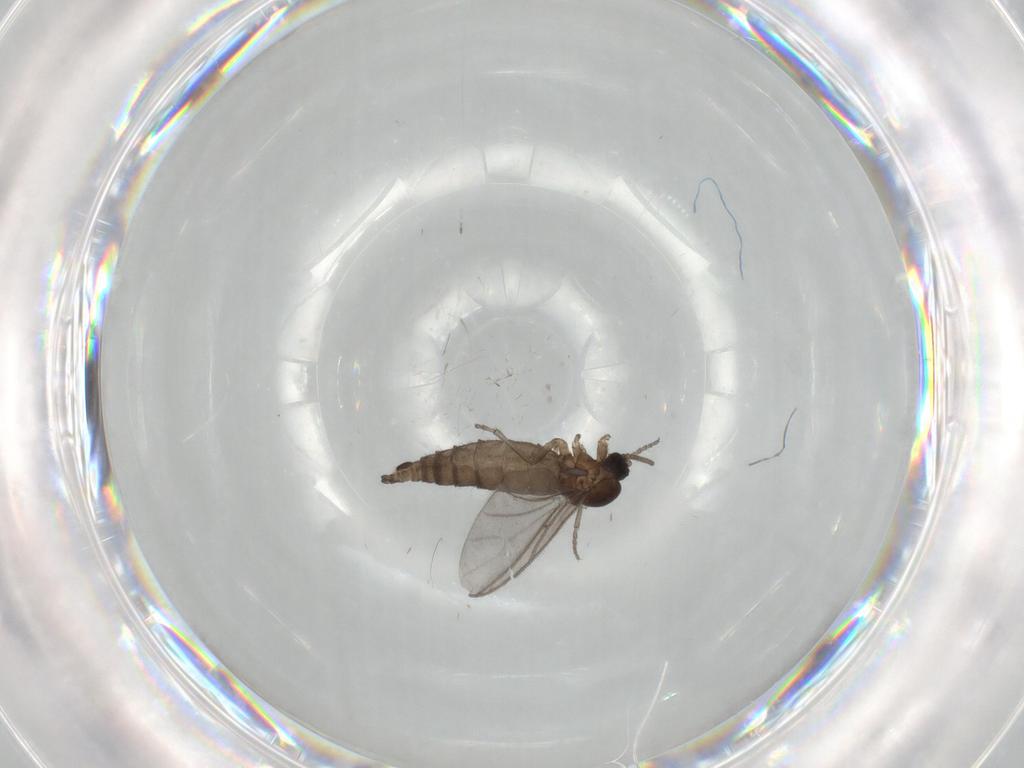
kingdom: Animalia
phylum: Arthropoda
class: Insecta
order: Diptera
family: Sciaridae
